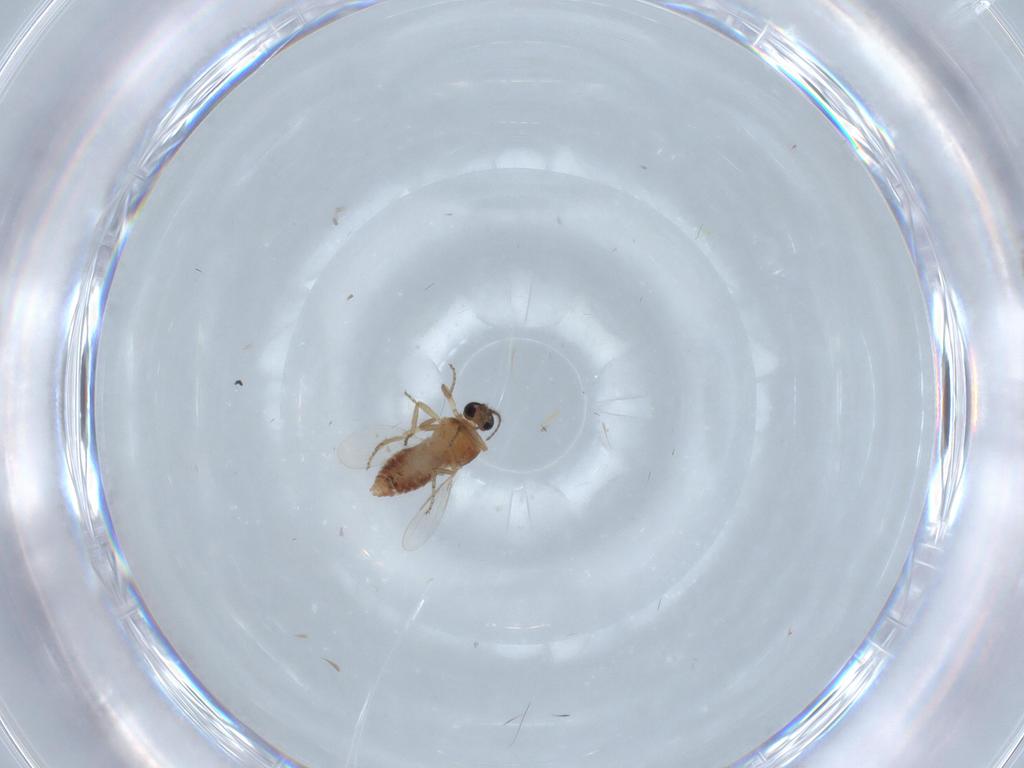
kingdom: Animalia
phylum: Arthropoda
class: Insecta
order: Diptera
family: Ceratopogonidae
